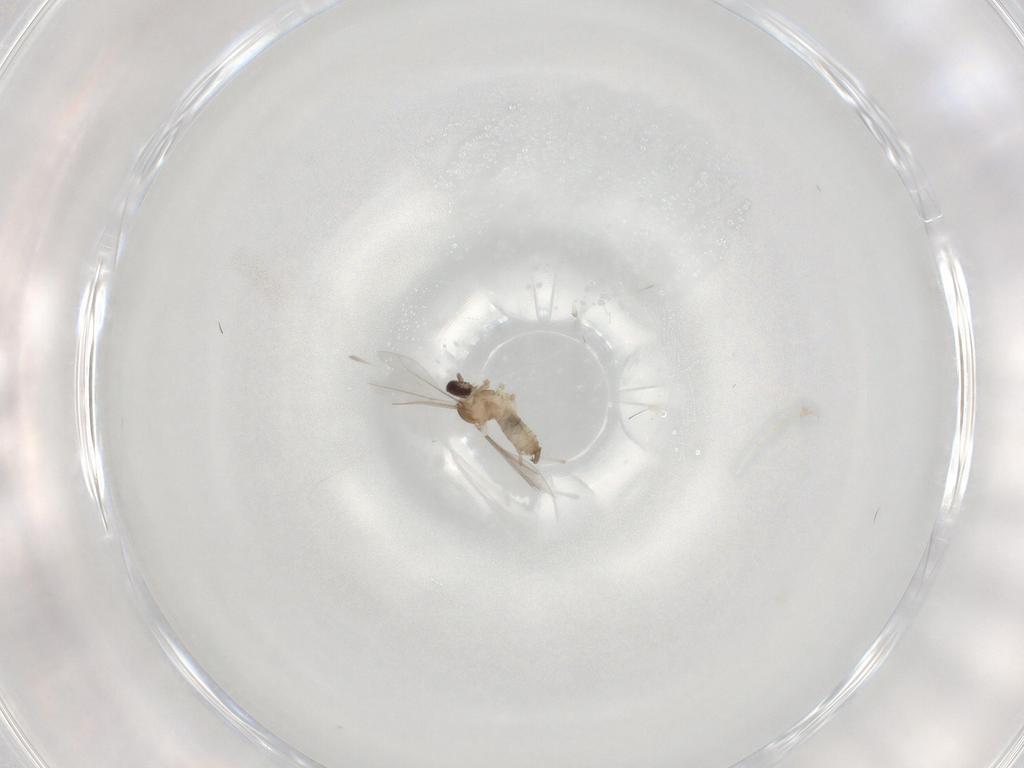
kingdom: Animalia
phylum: Arthropoda
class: Insecta
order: Diptera
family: Cecidomyiidae
